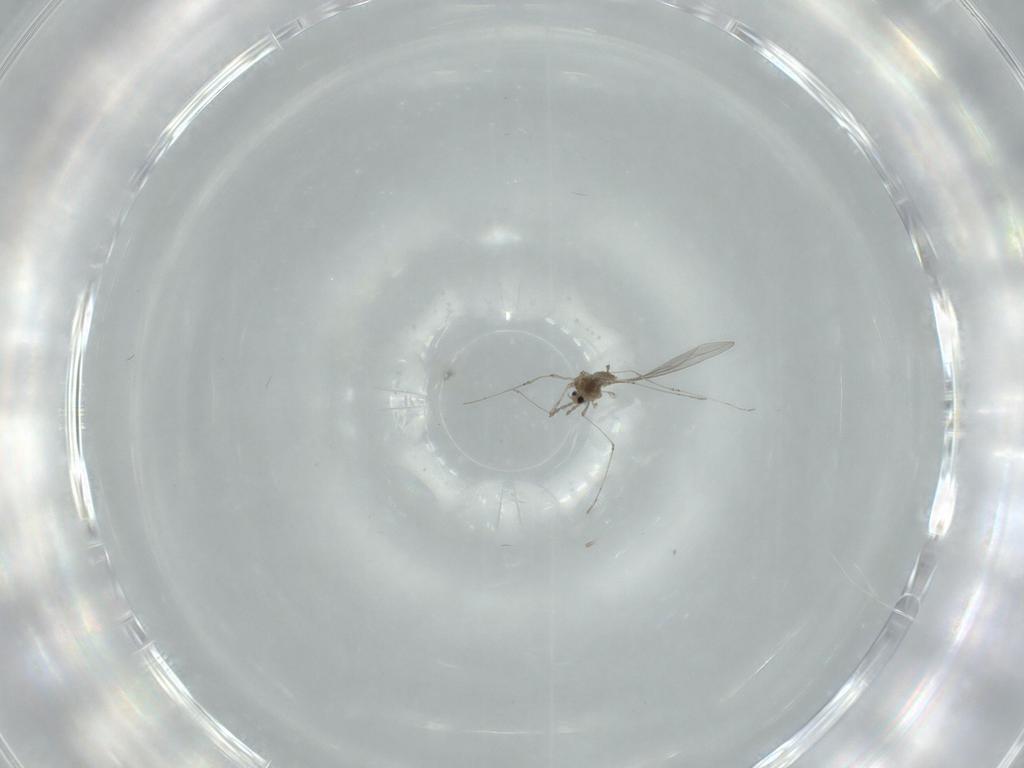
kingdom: Animalia
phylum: Arthropoda
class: Insecta
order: Diptera
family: Cecidomyiidae
